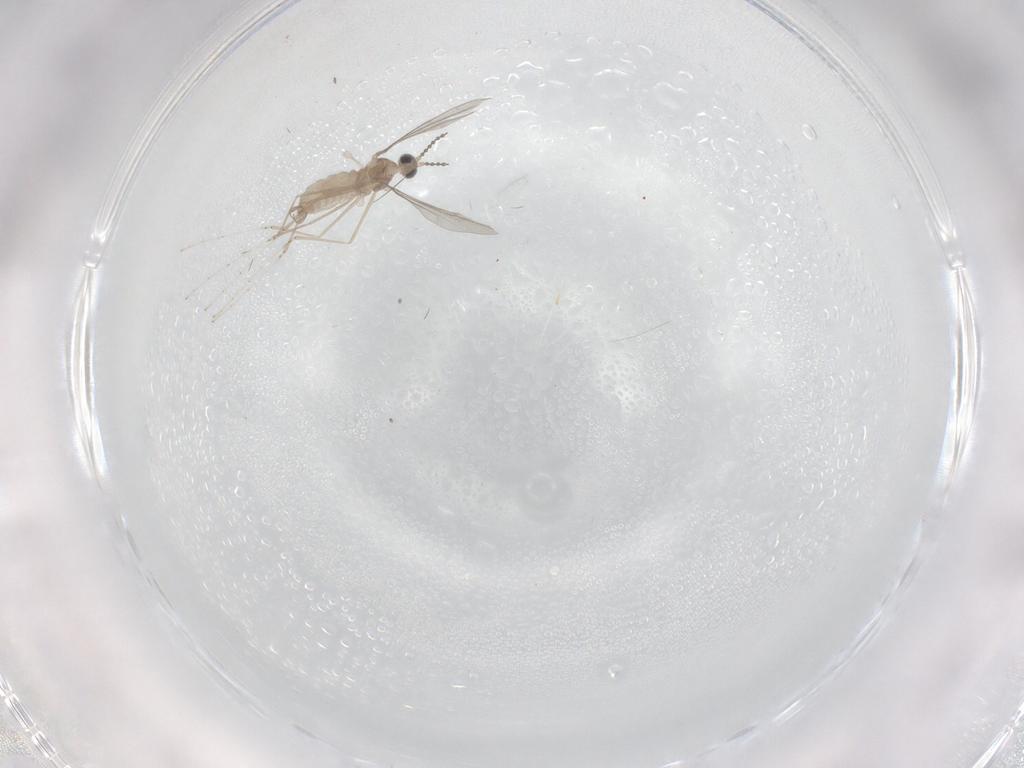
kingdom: Animalia
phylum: Arthropoda
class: Insecta
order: Diptera
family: Cecidomyiidae
